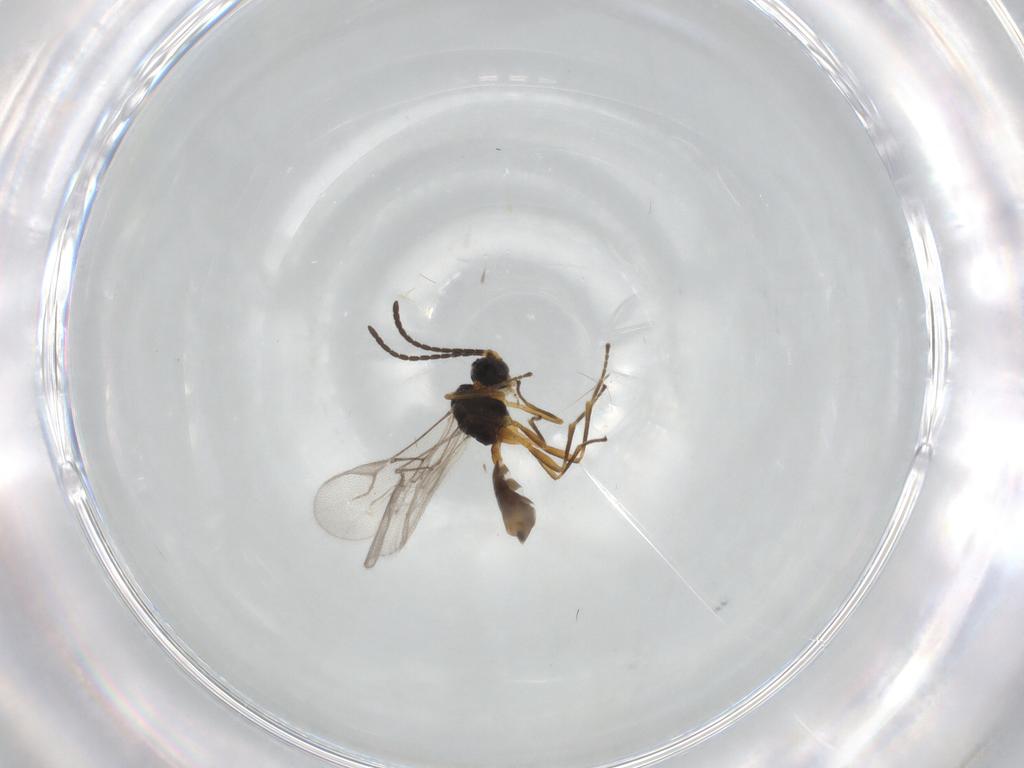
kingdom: Animalia
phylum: Arthropoda
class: Insecta
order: Hymenoptera
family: Braconidae
